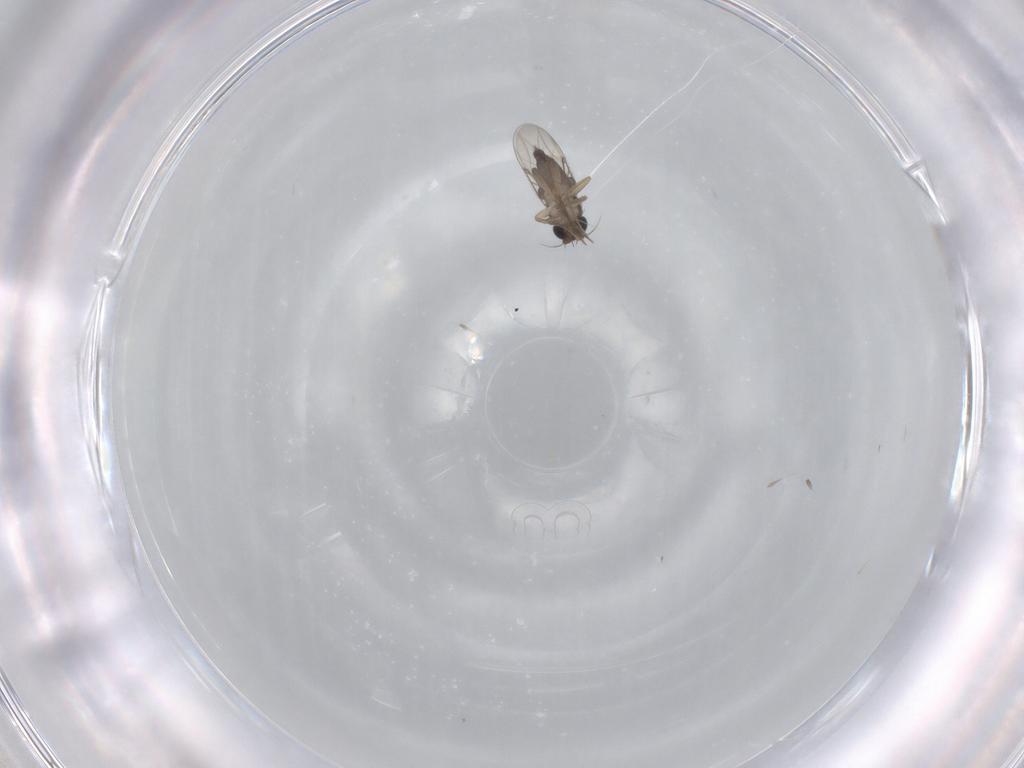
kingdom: Animalia
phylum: Arthropoda
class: Insecta
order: Diptera
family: Phoridae
